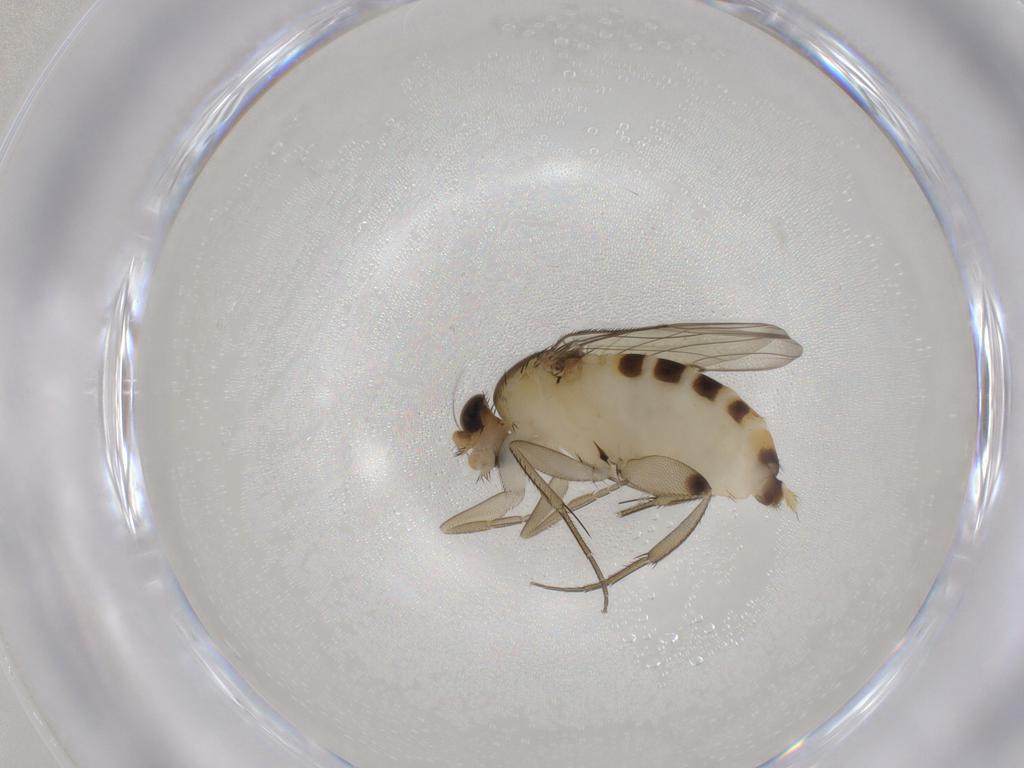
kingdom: Animalia
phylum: Arthropoda
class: Insecta
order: Diptera
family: Phoridae
